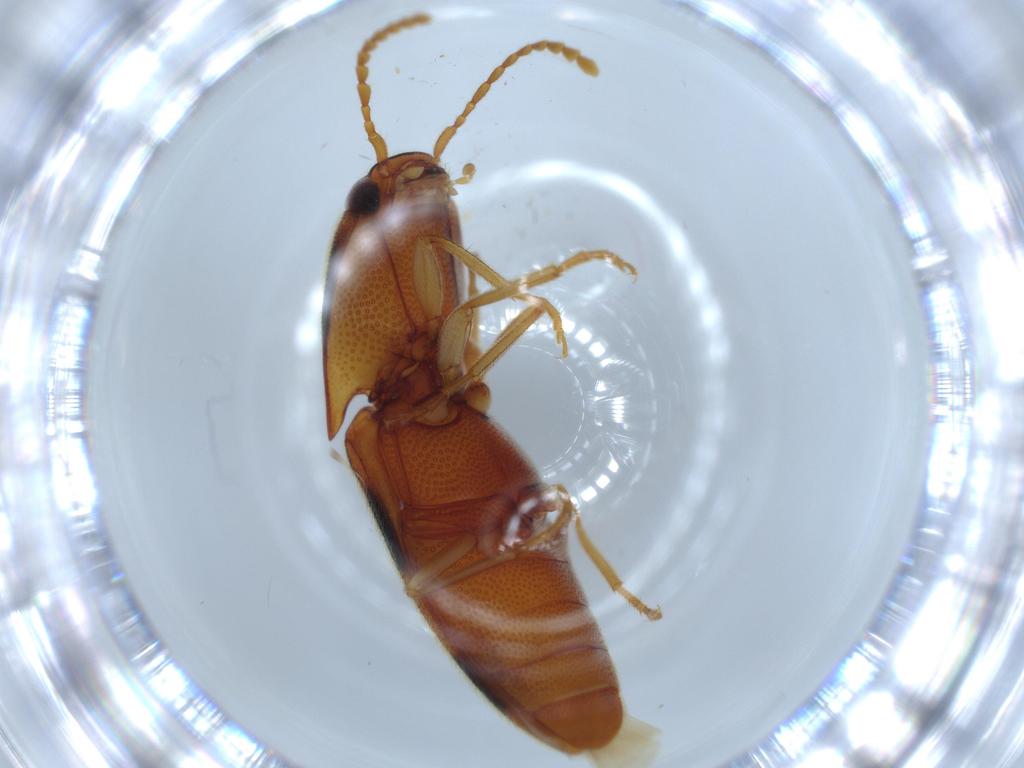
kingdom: Animalia
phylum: Arthropoda
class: Insecta
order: Coleoptera
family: Elateridae
